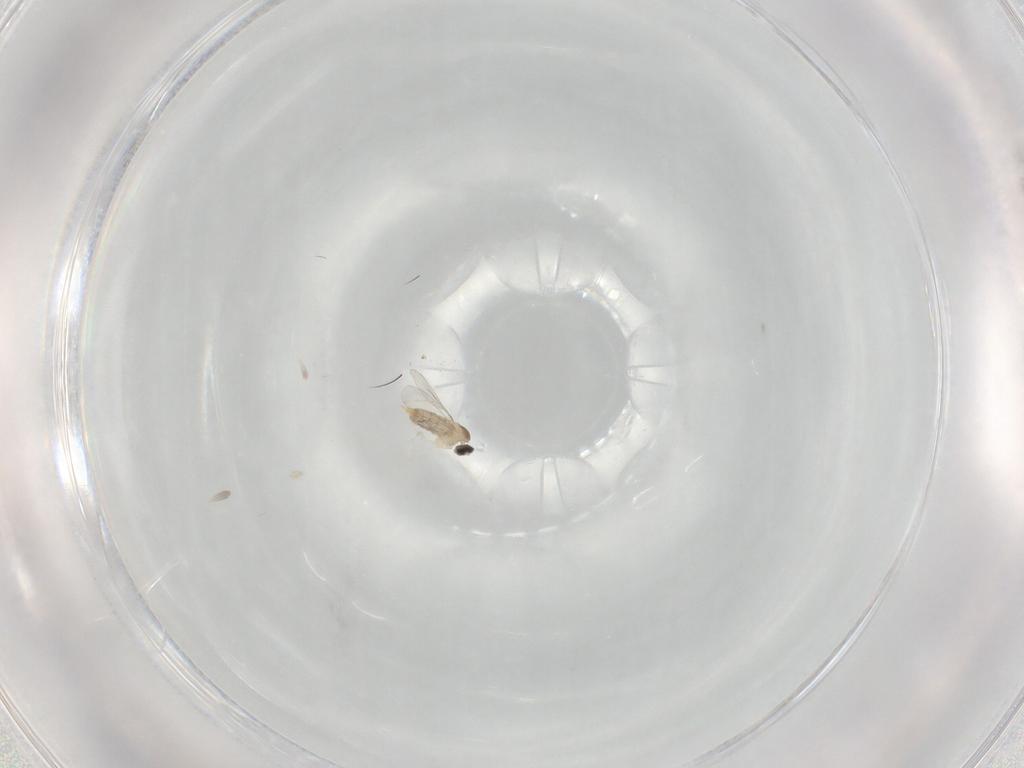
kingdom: Animalia
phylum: Arthropoda
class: Insecta
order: Diptera
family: Cecidomyiidae
